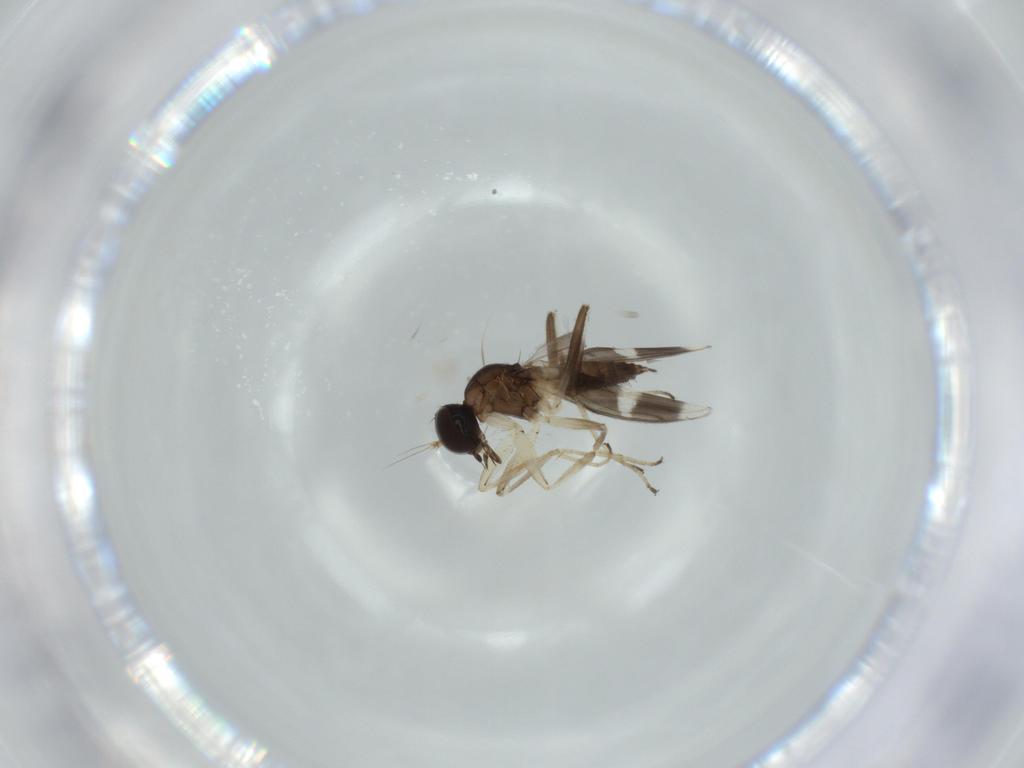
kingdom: Animalia
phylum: Arthropoda
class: Insecta
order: Diptera
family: Hybotidae
